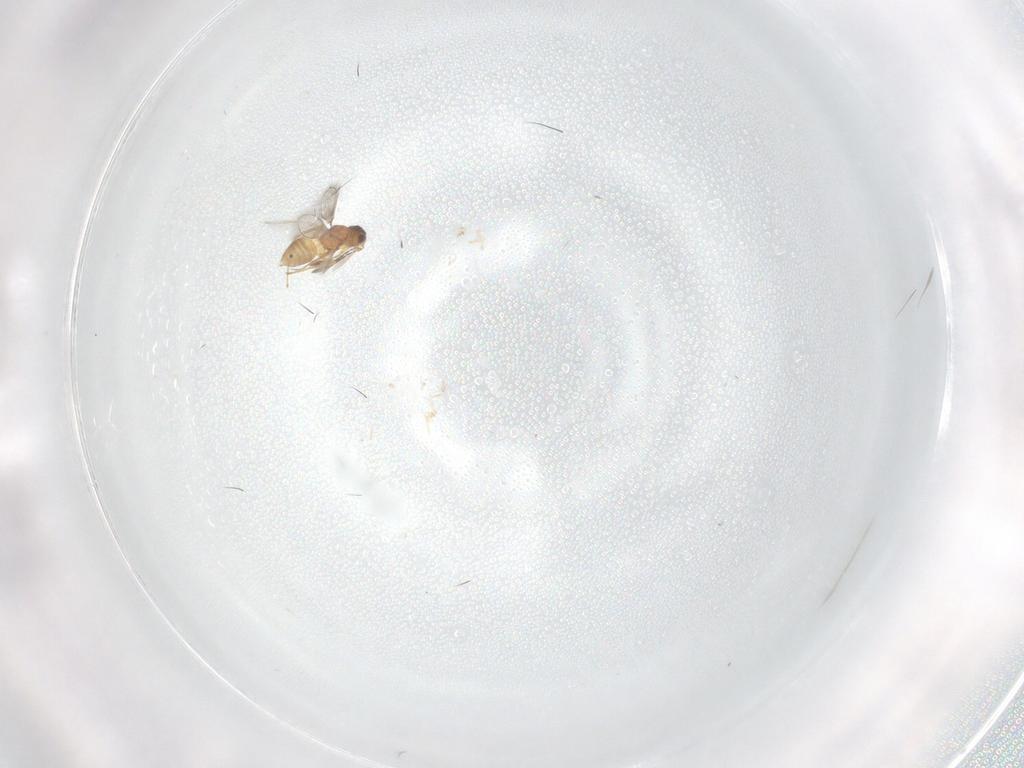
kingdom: Animalia
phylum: Arthropoda
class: Insecta
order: Hymenoptera
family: Mymaridae
